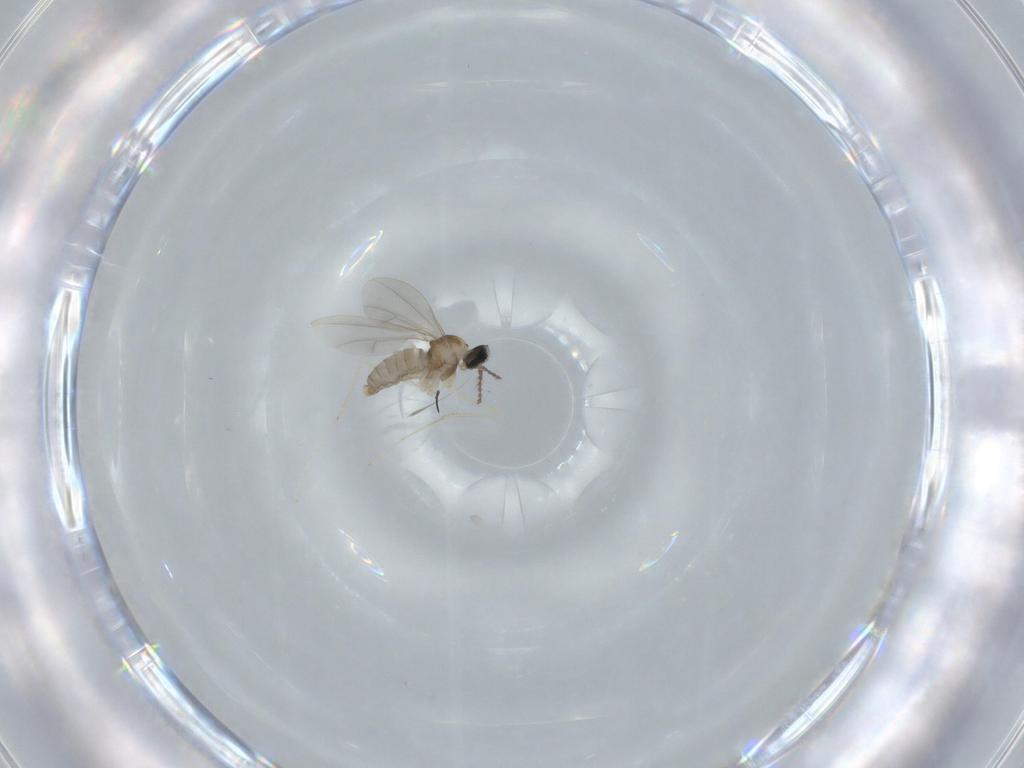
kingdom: Animalia
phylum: Arthropoda
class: Insecta
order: Diptera
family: Cecidomyiidae
